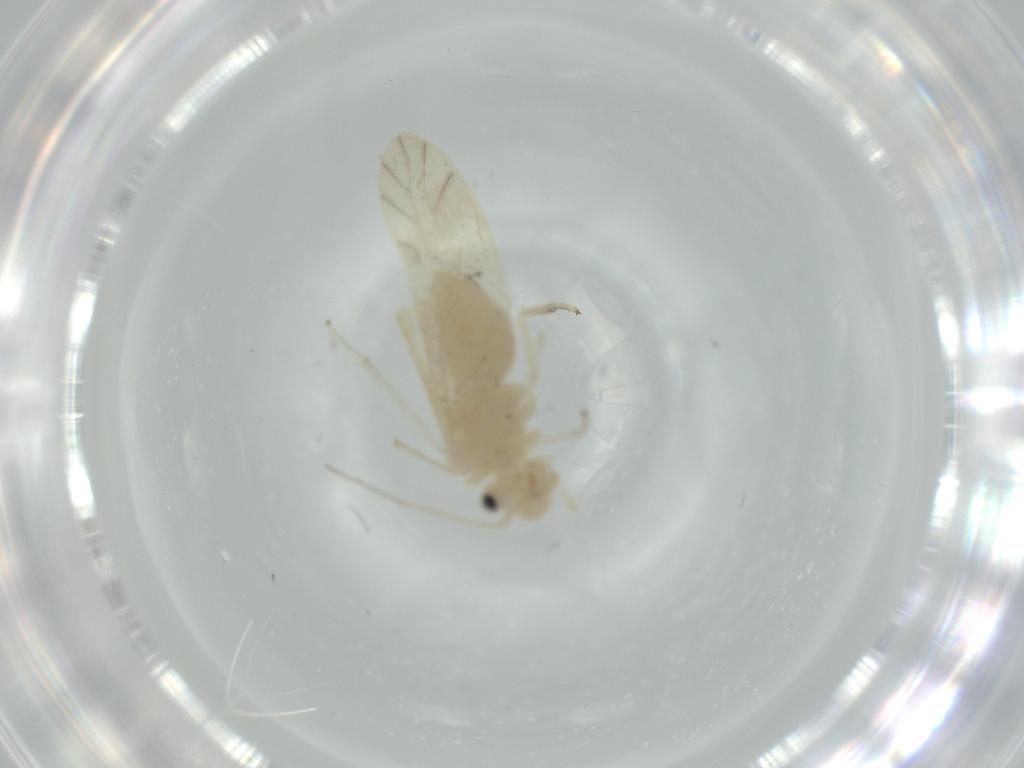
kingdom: Animalia
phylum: Arthropoda
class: Insecta
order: Psocodea
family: Caeciliusidae
